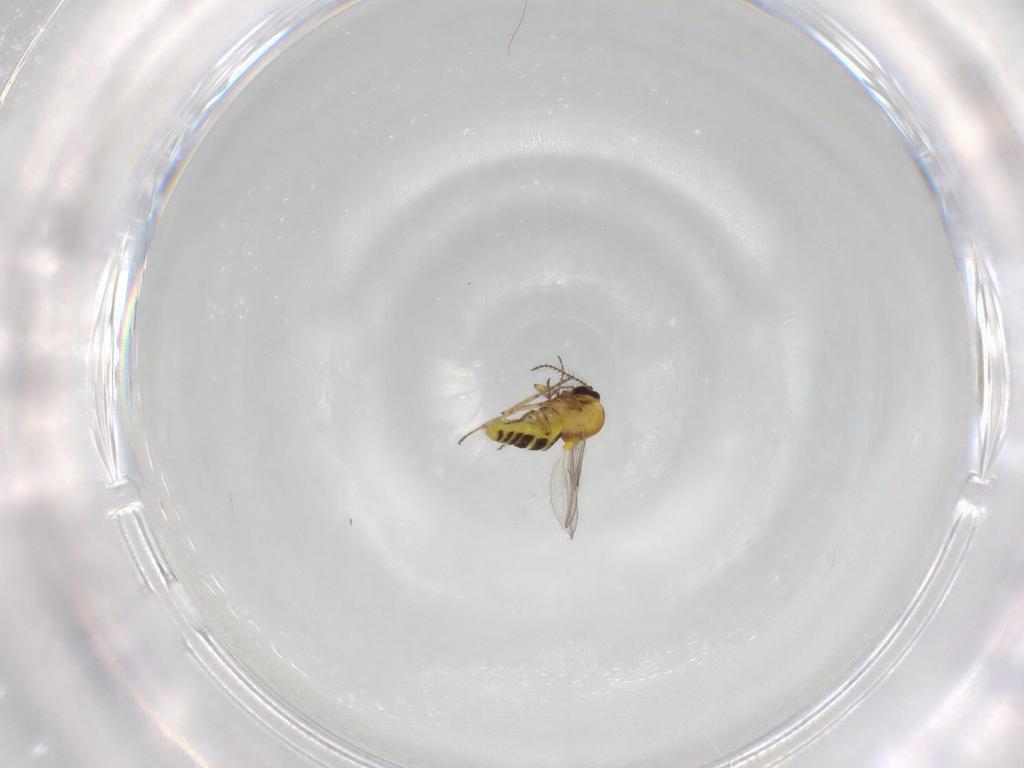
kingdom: Animalia
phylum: Arthropoda
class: Insecta
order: Diptera
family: Ceratopogonidae
